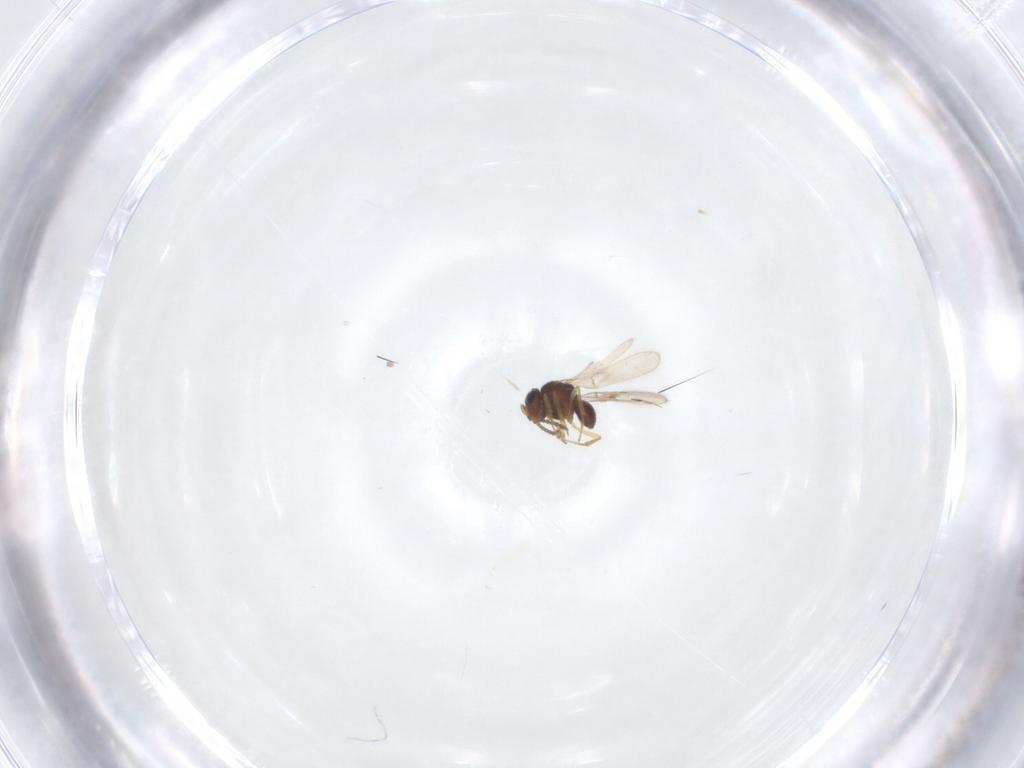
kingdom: Animalia
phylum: Arthropoda
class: Insecta
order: Hymenoptera
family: Scelionidae
